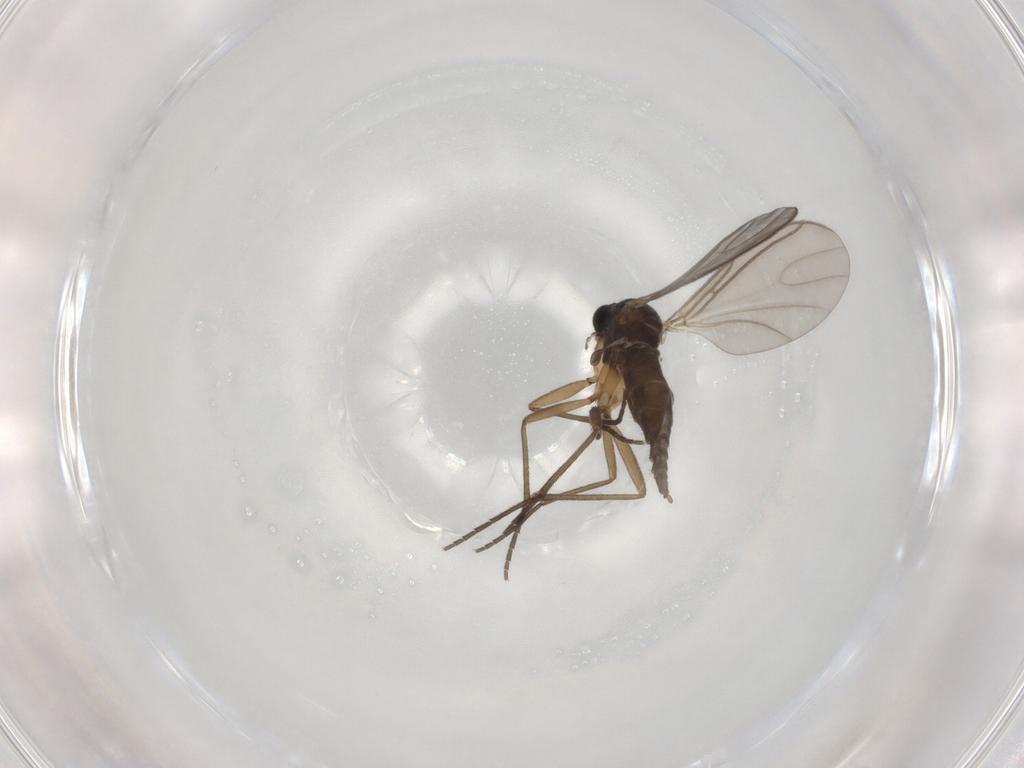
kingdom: Animalia
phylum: Arthropoda
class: Insecta
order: Diptera
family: Sciaridae
